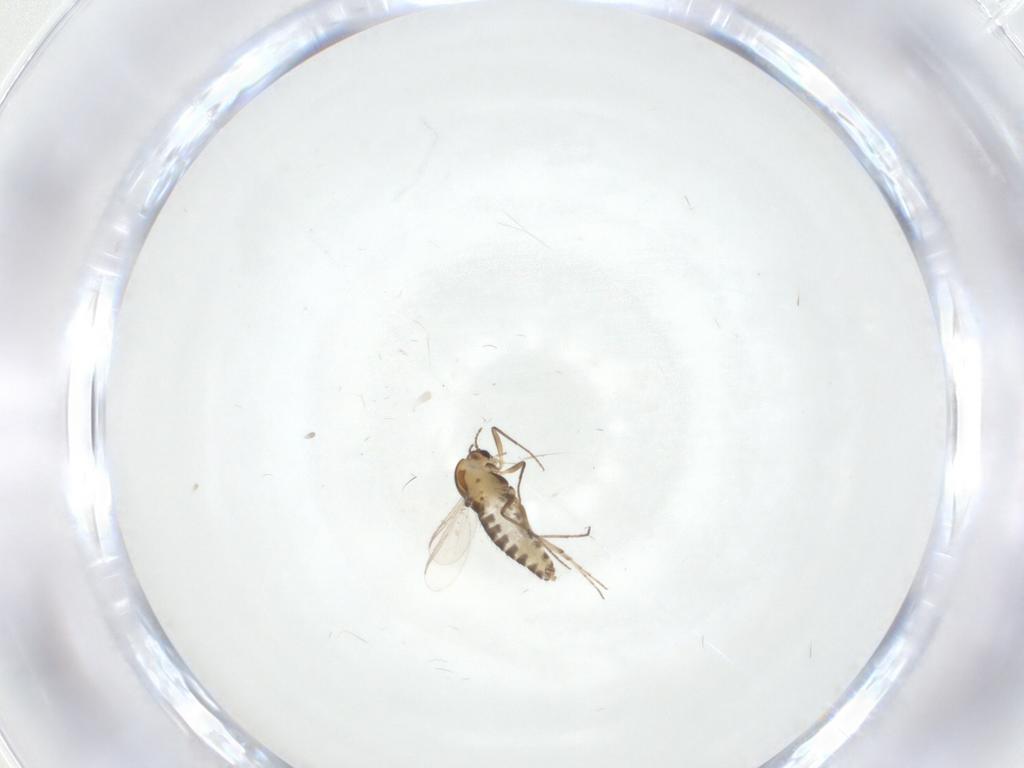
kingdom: Animalia
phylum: Arthropoda
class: Insecta
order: Diptera
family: Chironomidae
